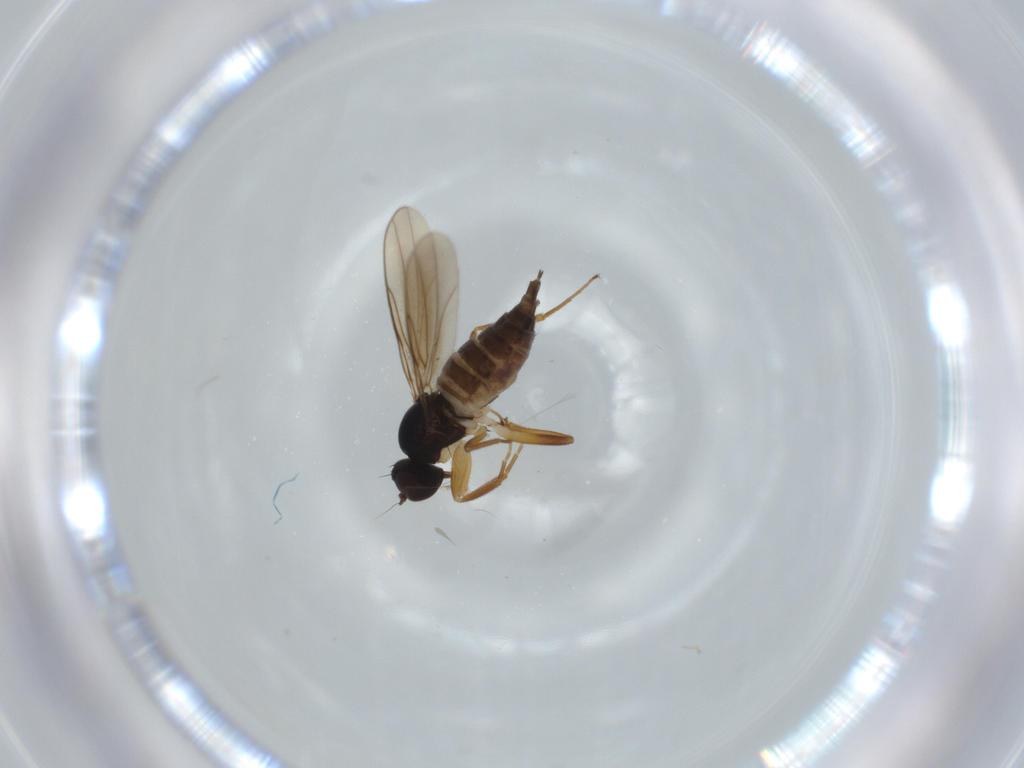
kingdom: Animalia
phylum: Arthropoda
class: Insecta
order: Diptera
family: Hybotidae
